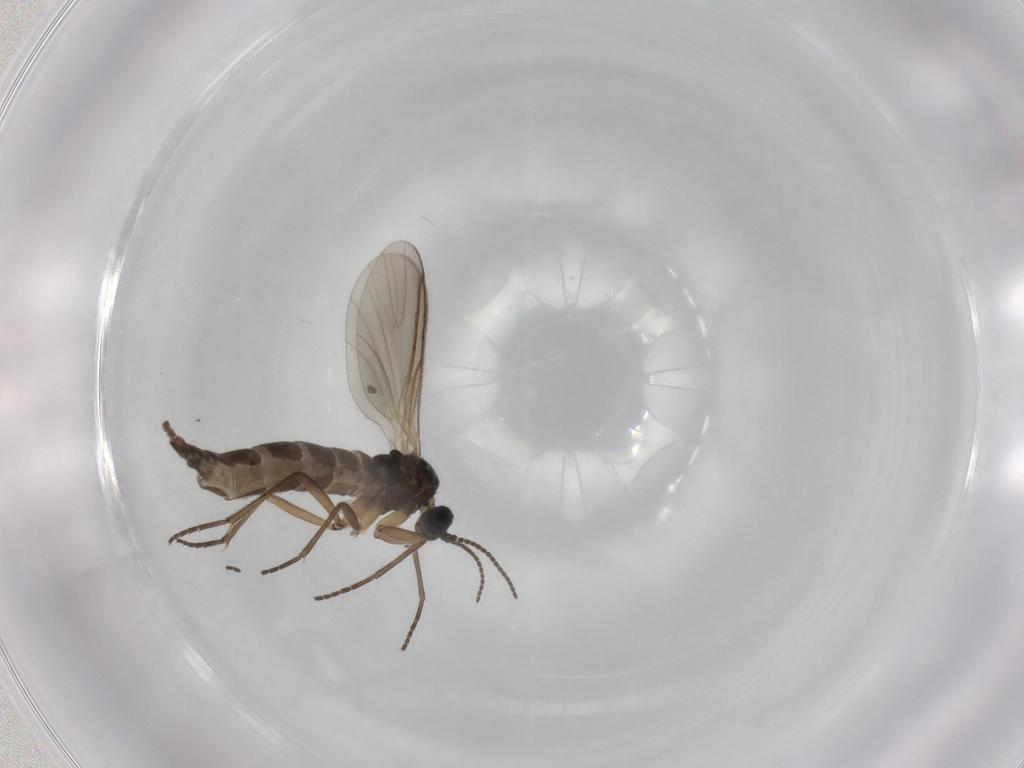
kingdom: Animalia
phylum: Arthropoda
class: Insecta
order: Diptera
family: Sciaridae
